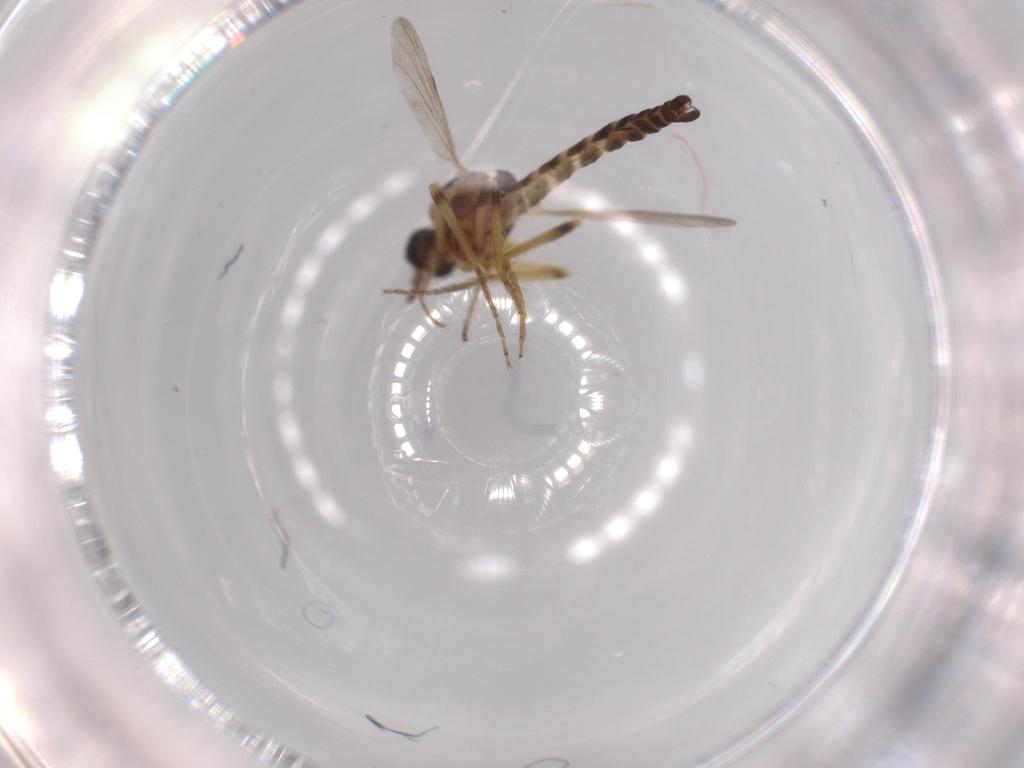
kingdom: Animalia
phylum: Arthropoda
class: Insecta
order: Diptera
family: Ceratopogonidae
